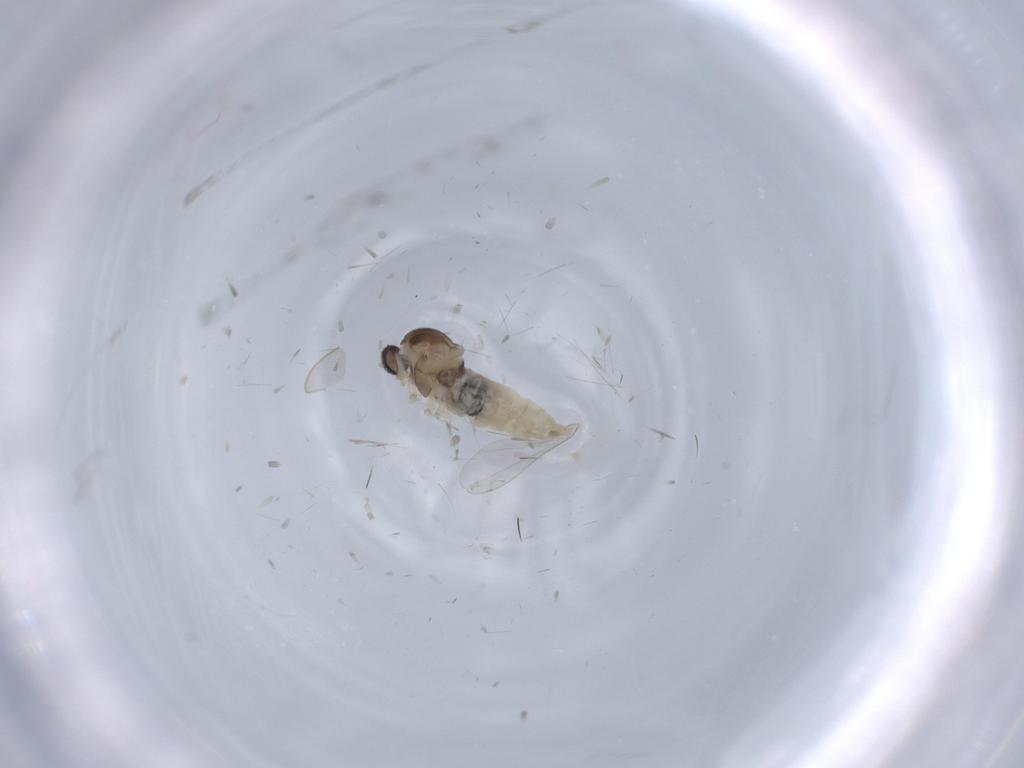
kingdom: Animalia
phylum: Arthropoda
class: Insecta
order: Diptera
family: Cecidomyiidae
